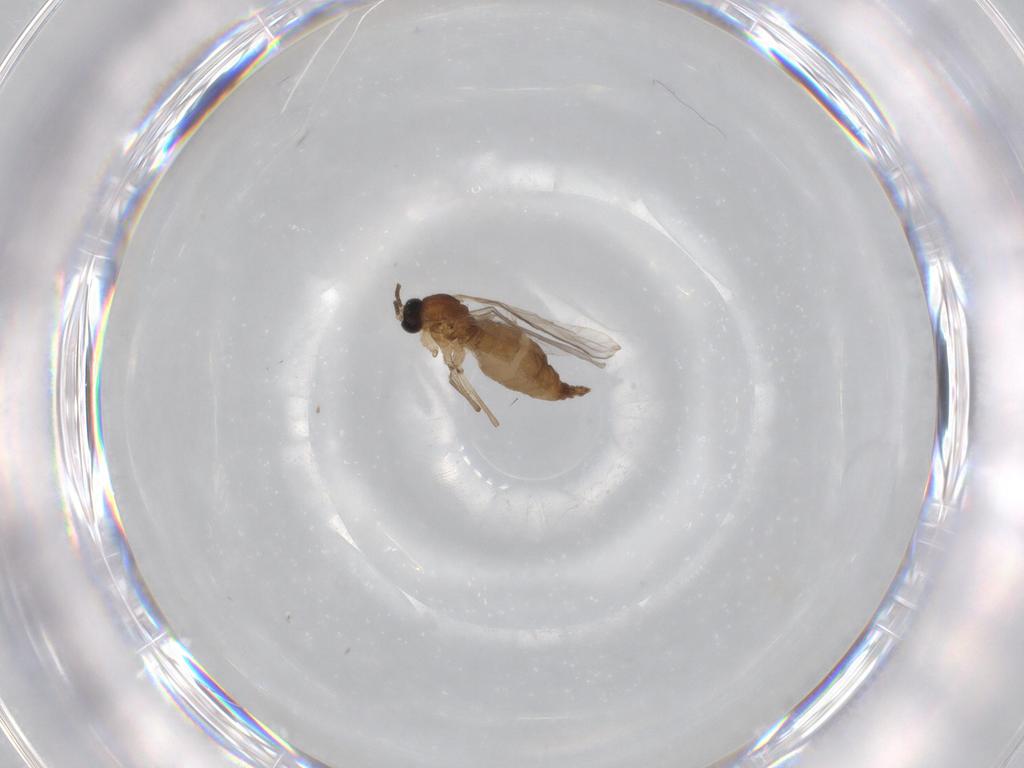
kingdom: Animalia
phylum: Arthropoda
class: Insecta
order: Diptera
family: Sciaridae
